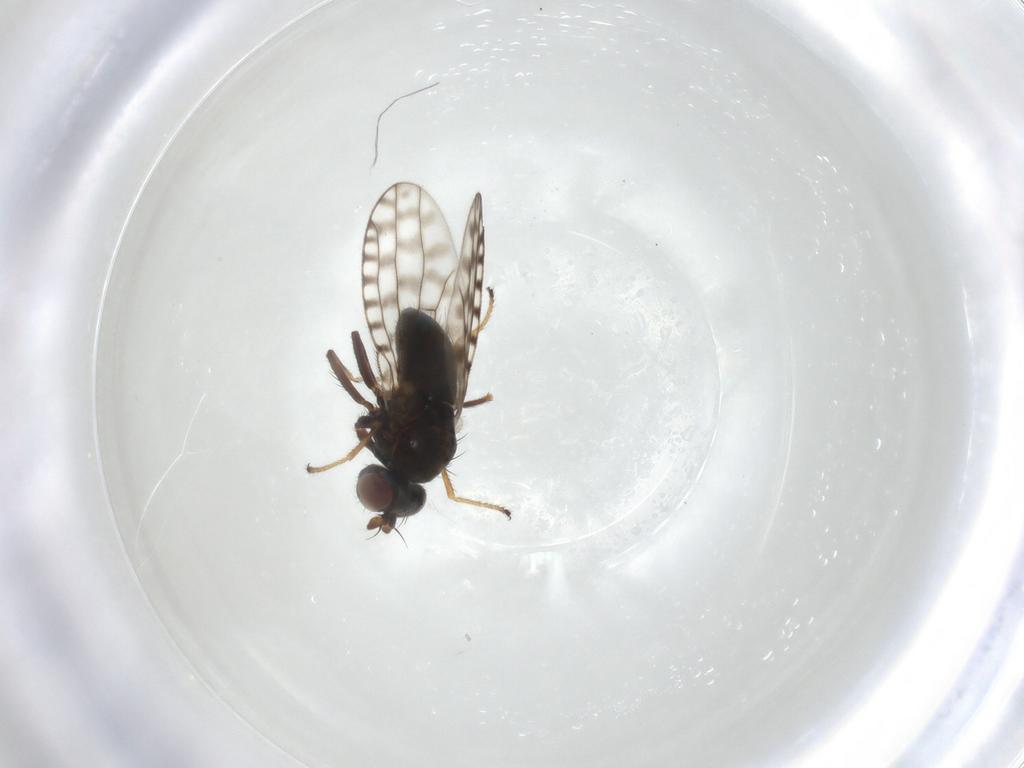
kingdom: Animalia
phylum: Arthropoda
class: Insecta
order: Diptera
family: Ephydridae
